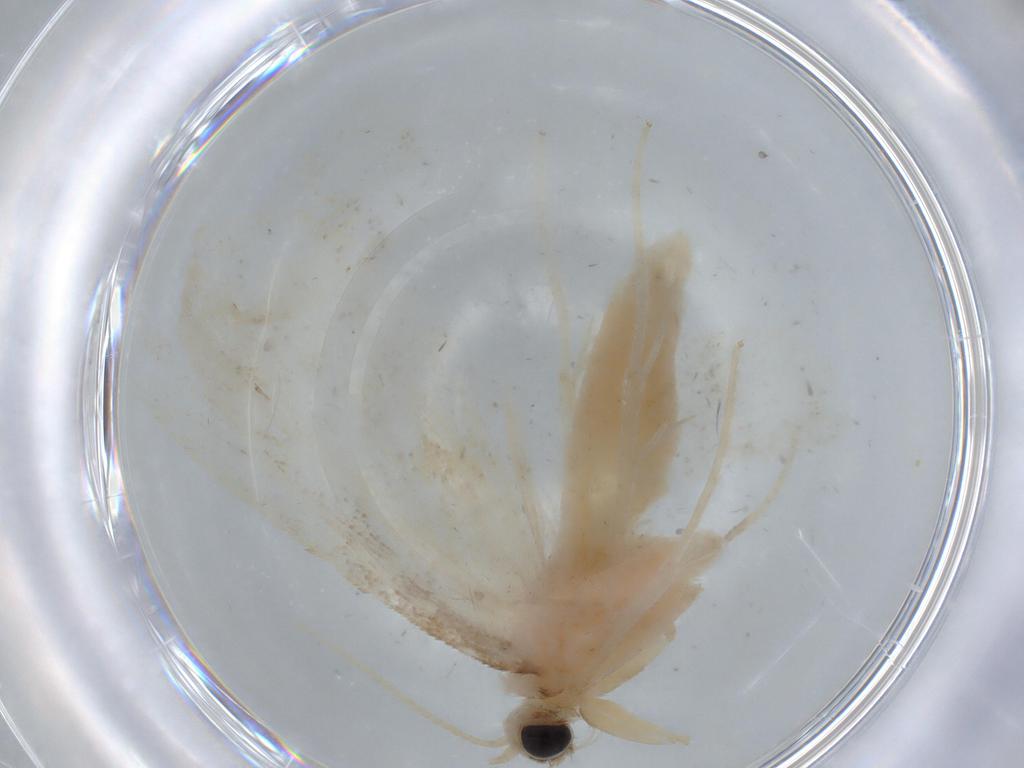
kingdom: Animalia
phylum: Arthropoda
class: Insecta
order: Lepidoptera
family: Crambidae
